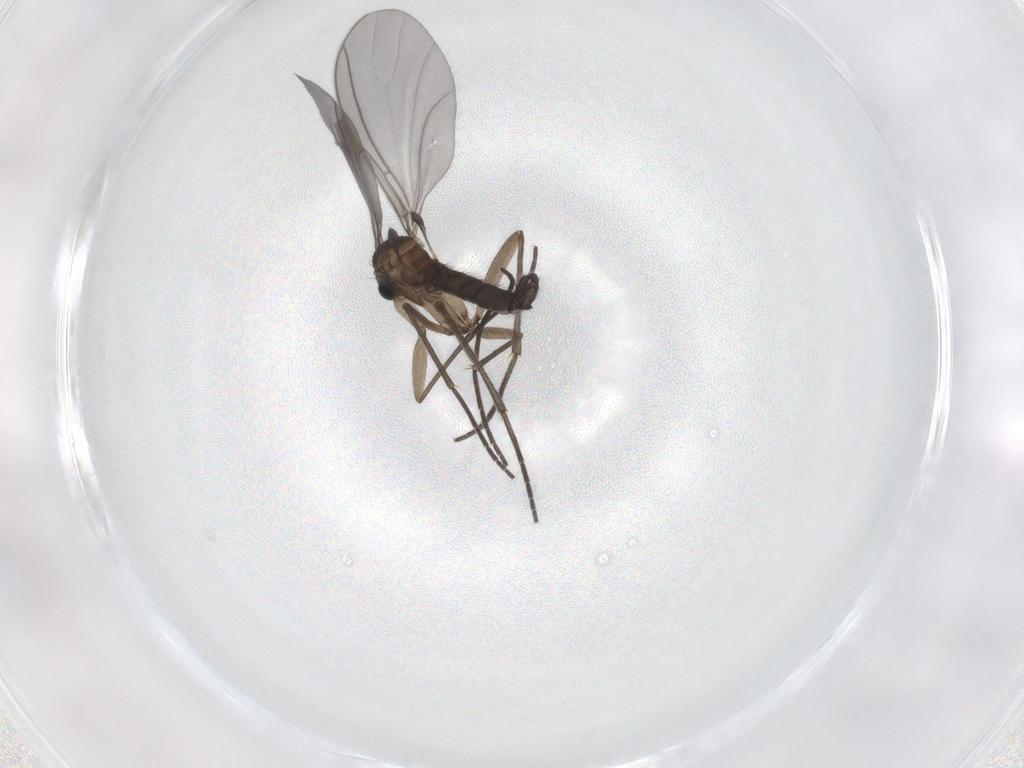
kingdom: Animalia
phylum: Arthropoda
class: Insecta
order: Diptera
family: Sciaridae
